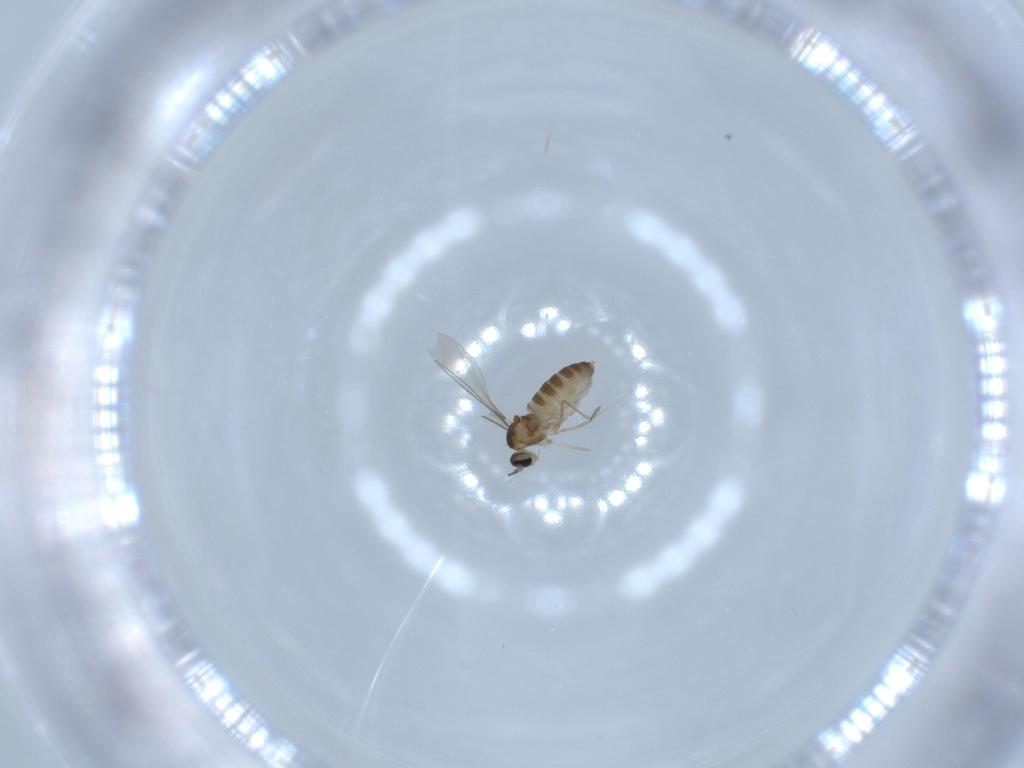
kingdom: Animalia
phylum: Arthropoda
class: Insecta
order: Diptera
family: Cecidomyiidae
